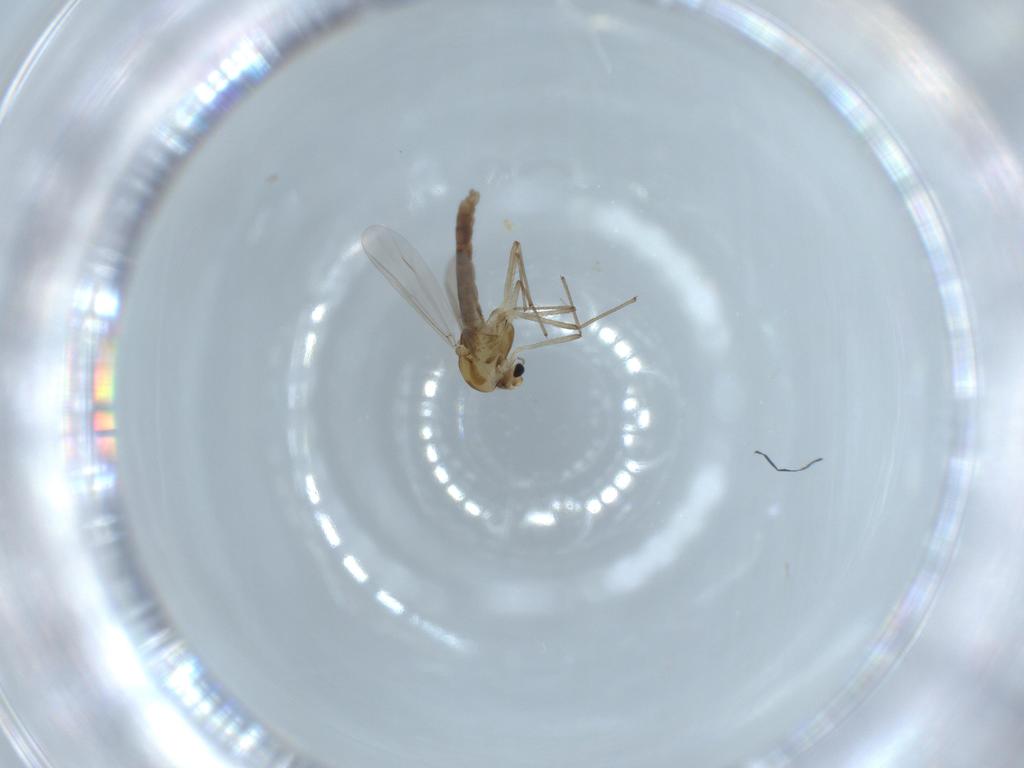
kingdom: Animalia
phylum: Arthropoda
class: Insecta
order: Diptera
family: Chironomidae
